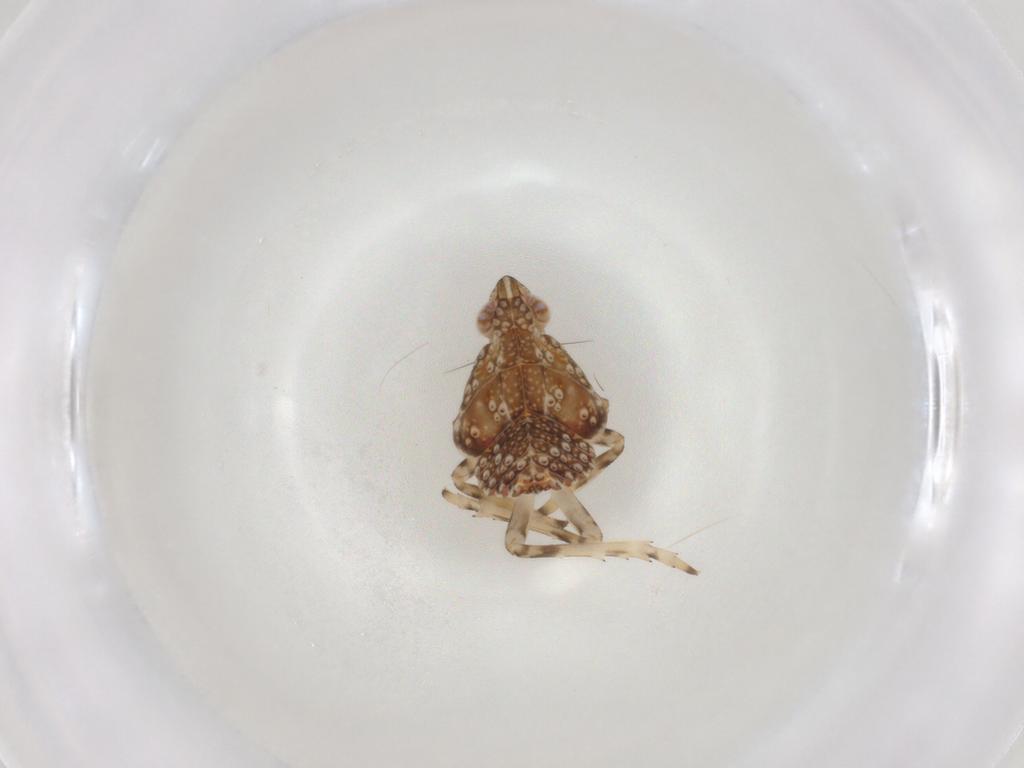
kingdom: Animalia
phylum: Arthropoda
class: Insecta
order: Hemiptera
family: Tropiduchidae
